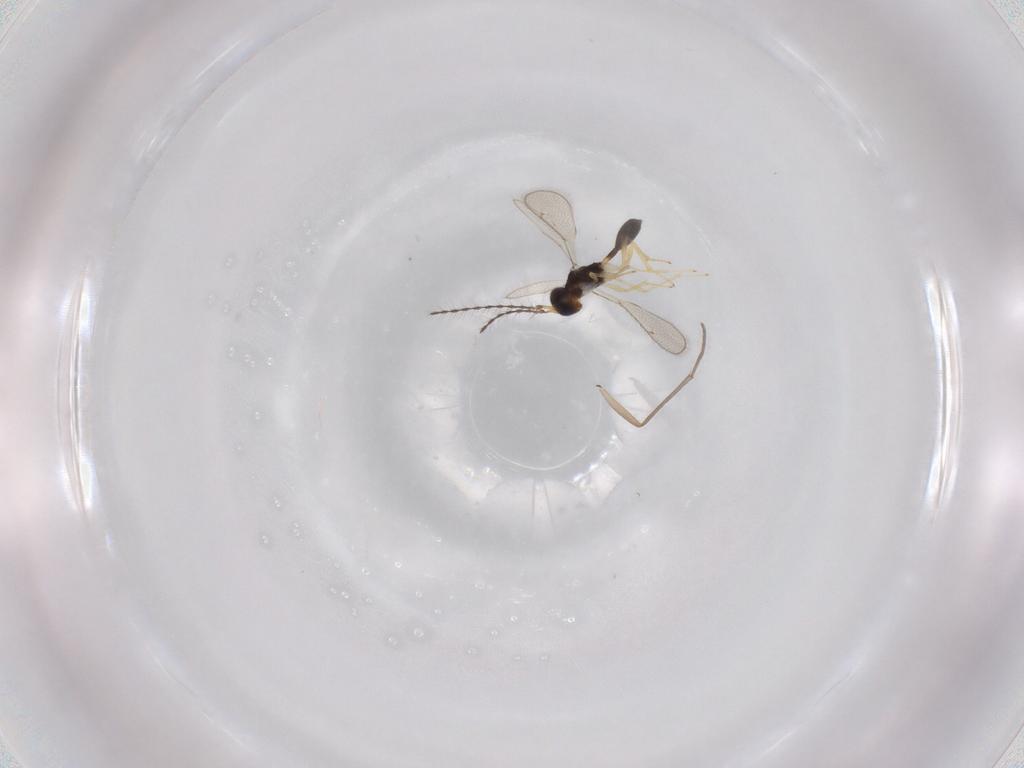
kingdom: Animalia
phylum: Arthropoda
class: Insecta
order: Hymenoptera
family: Diparidae
